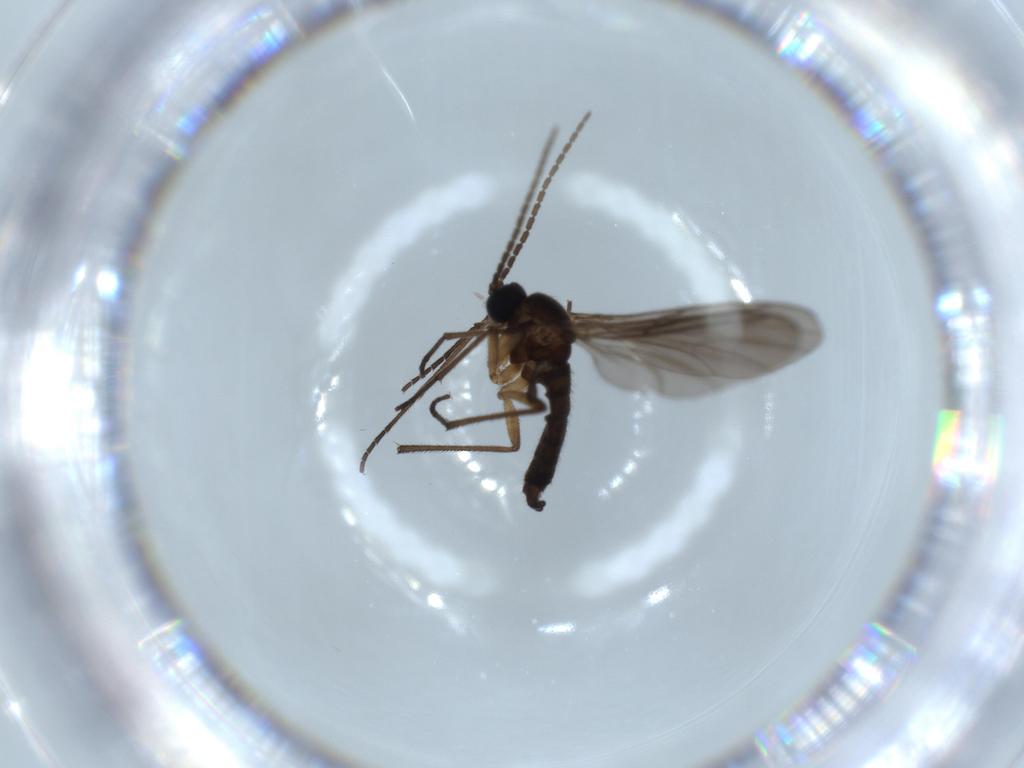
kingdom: Animalia
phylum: Arthropoda
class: Insecta
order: Diptera
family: Sciaridae
